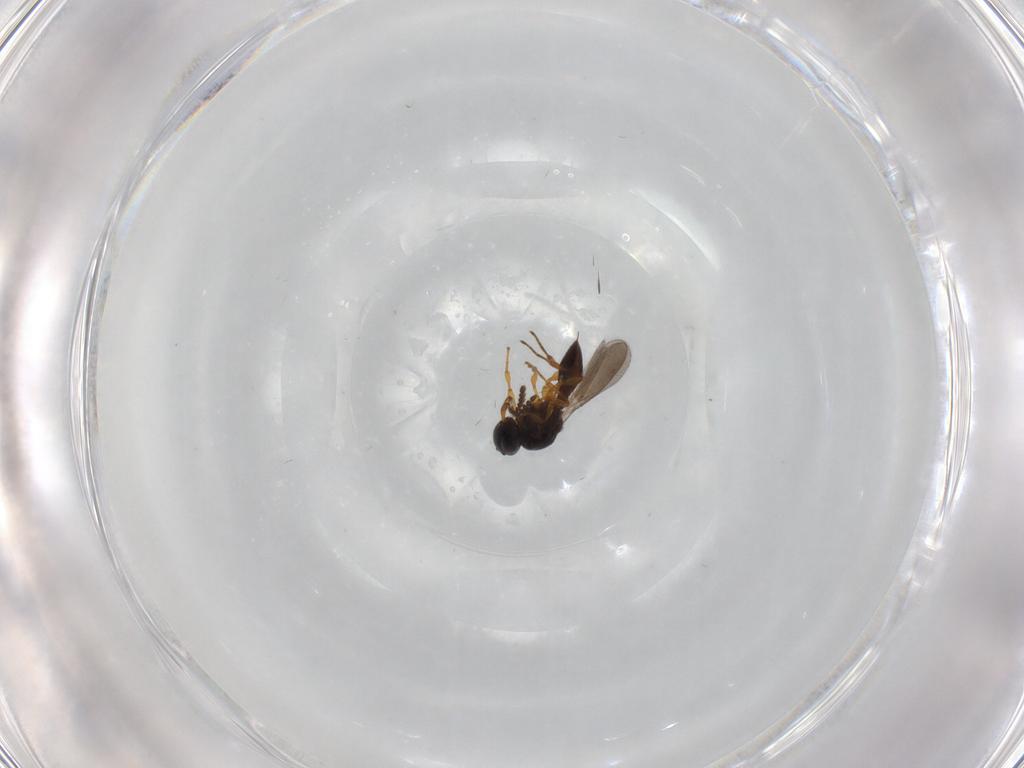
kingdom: Animalia
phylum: Arthropoda
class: Insecta
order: Hymenoptera
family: Platygastridae
